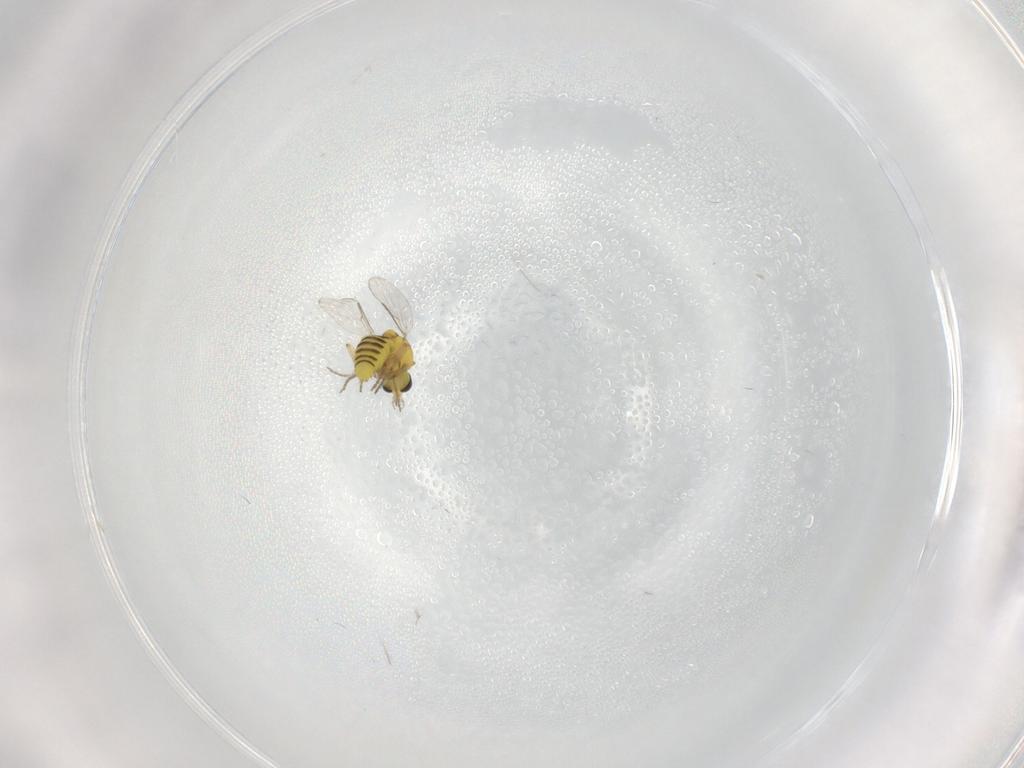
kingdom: Animalia
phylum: Arthropoda
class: Insecta
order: Diptera
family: Ceratopogonidae
